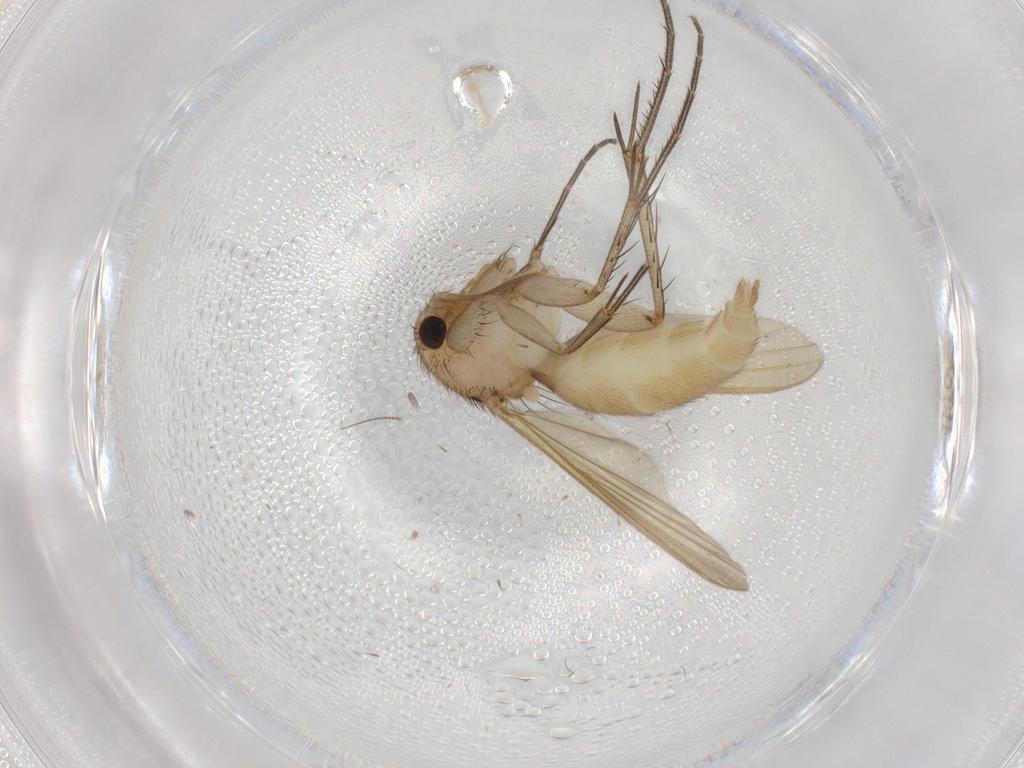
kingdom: Animalia
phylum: Arthropoda
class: Insecta
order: Diptera
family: Mycetophilidae
